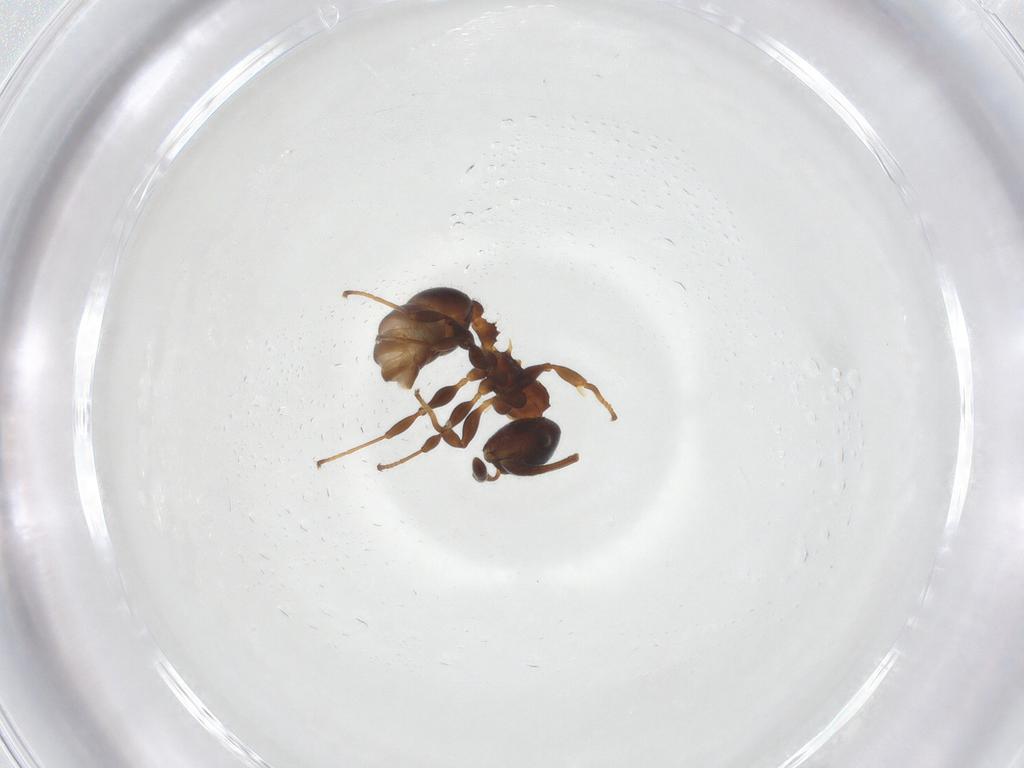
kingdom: Animalia
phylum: Arthropoda
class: Insecta
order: Hymenoptera
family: Formicidae
